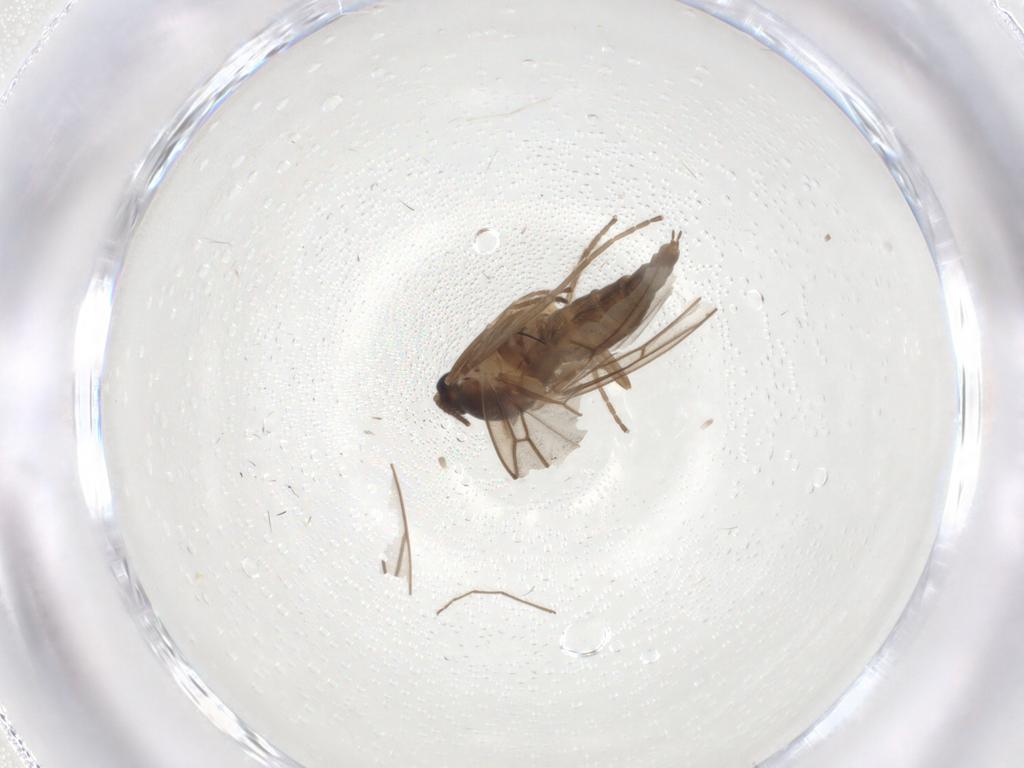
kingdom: Animalia
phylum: Arthropoda
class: Insecta
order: Diptera
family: Cecidomyiidae
